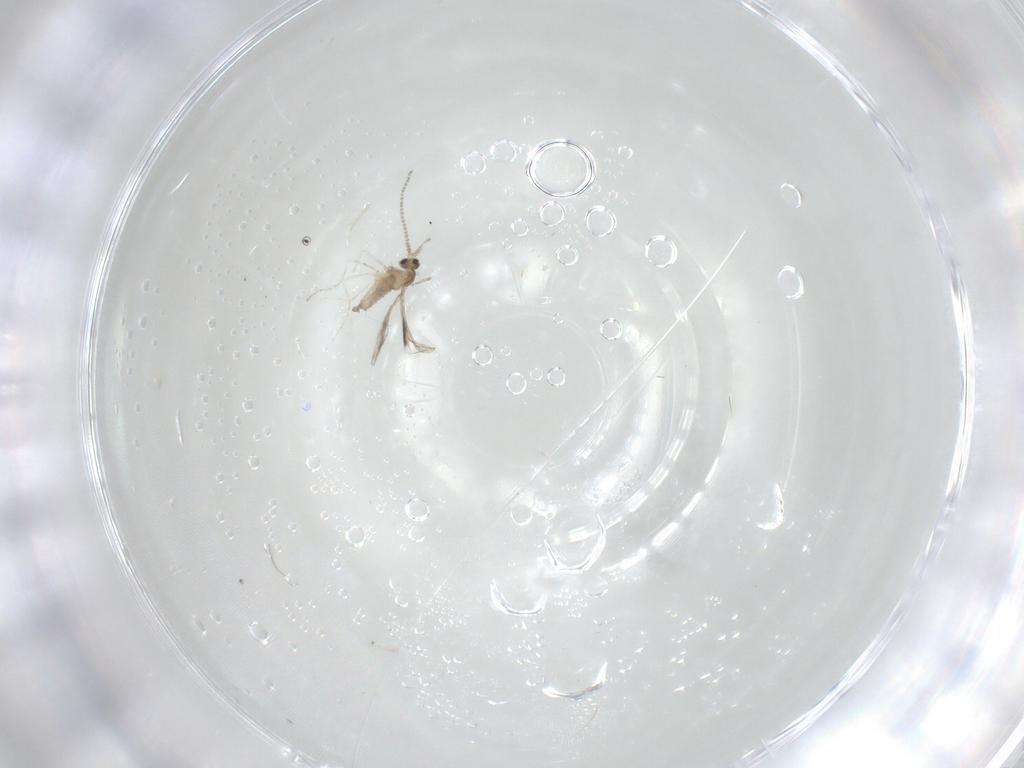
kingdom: Animalia
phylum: Arthropoda
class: Insecta
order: Diptera
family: Cecidomyiidae
